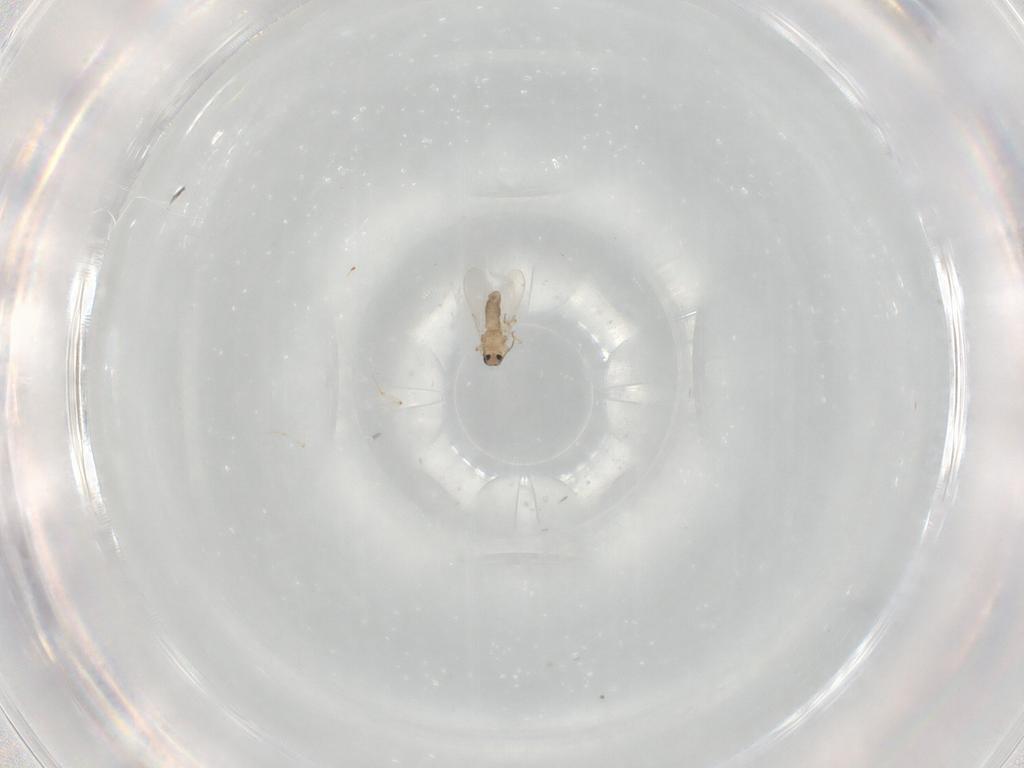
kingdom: Animalia
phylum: Arthropoda
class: Insecta
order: Diptera
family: Ceratopogonidae
